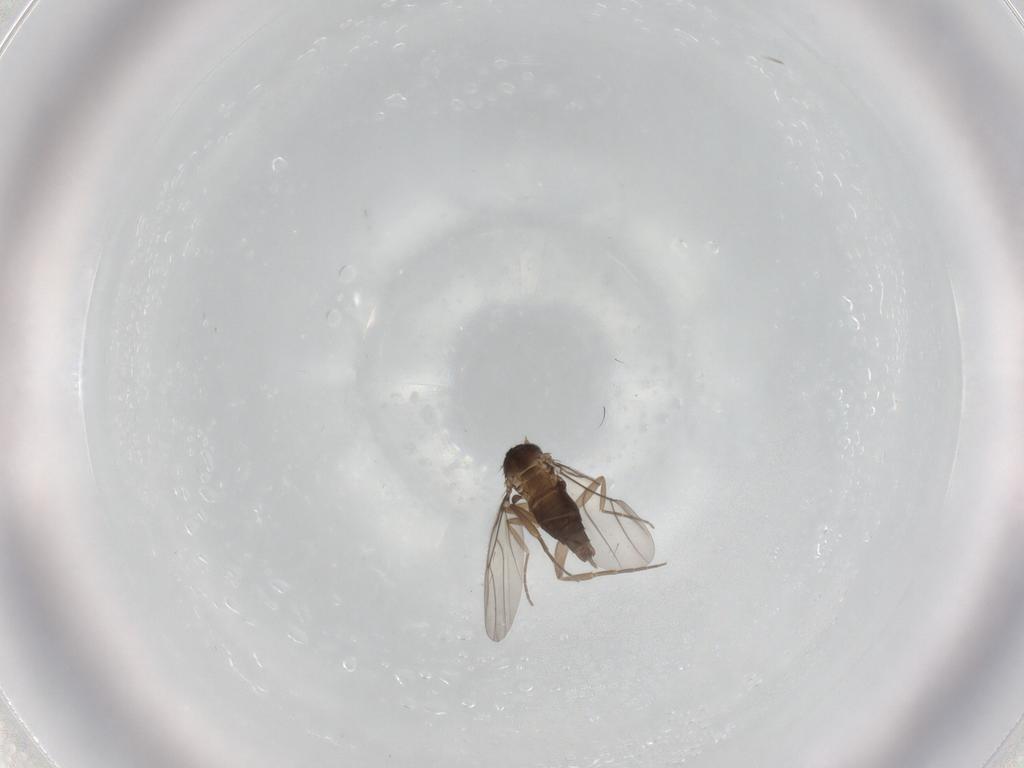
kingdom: Animalia
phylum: Arthropoda
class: Insecta
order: Diptera
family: Phoridae
